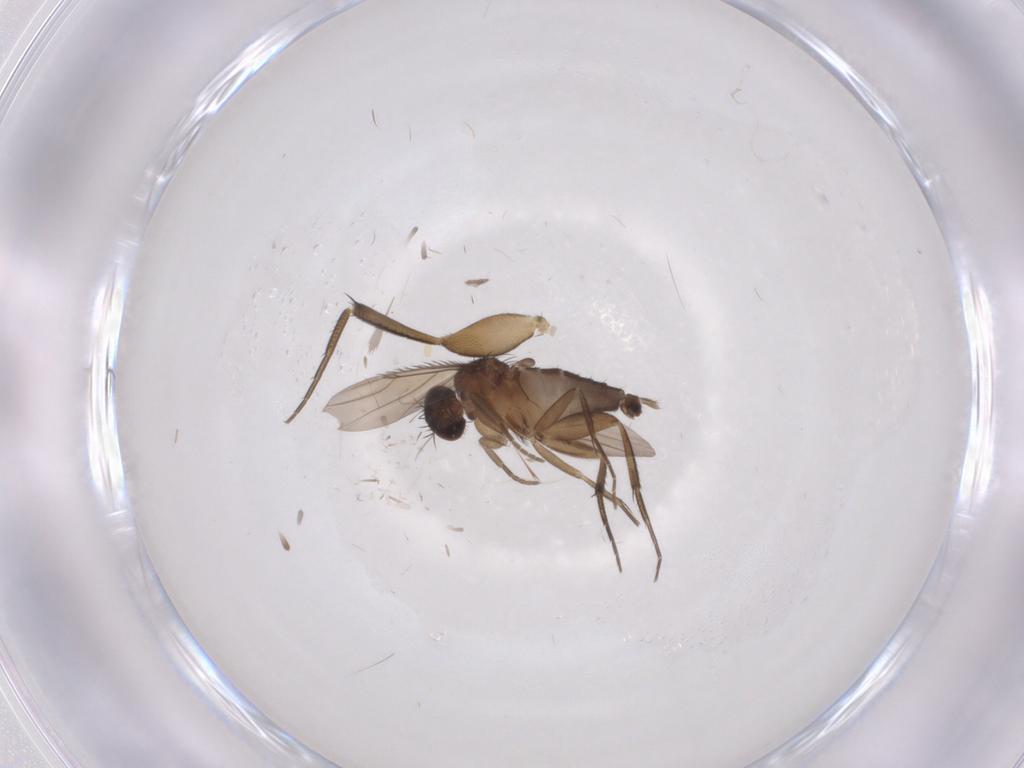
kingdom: Animalia
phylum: Arthropoda
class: Insecta
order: Diptera
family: Phoridae
